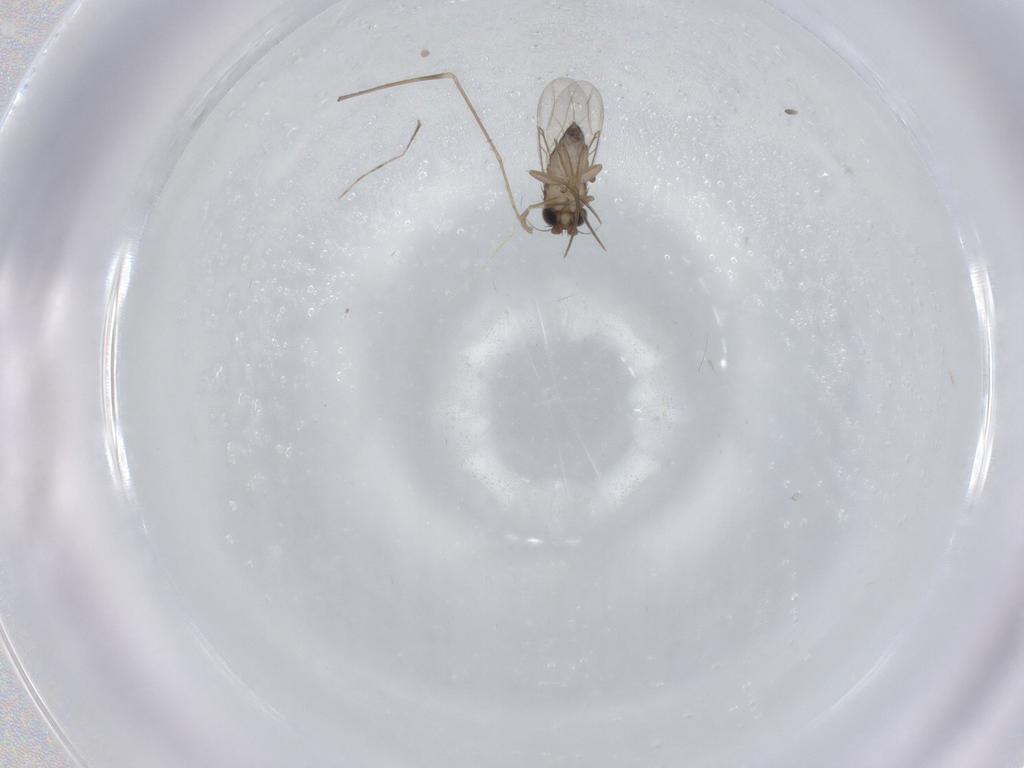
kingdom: Animalia
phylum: Arthropoda
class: Insecta
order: Diptera
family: Phoridae
